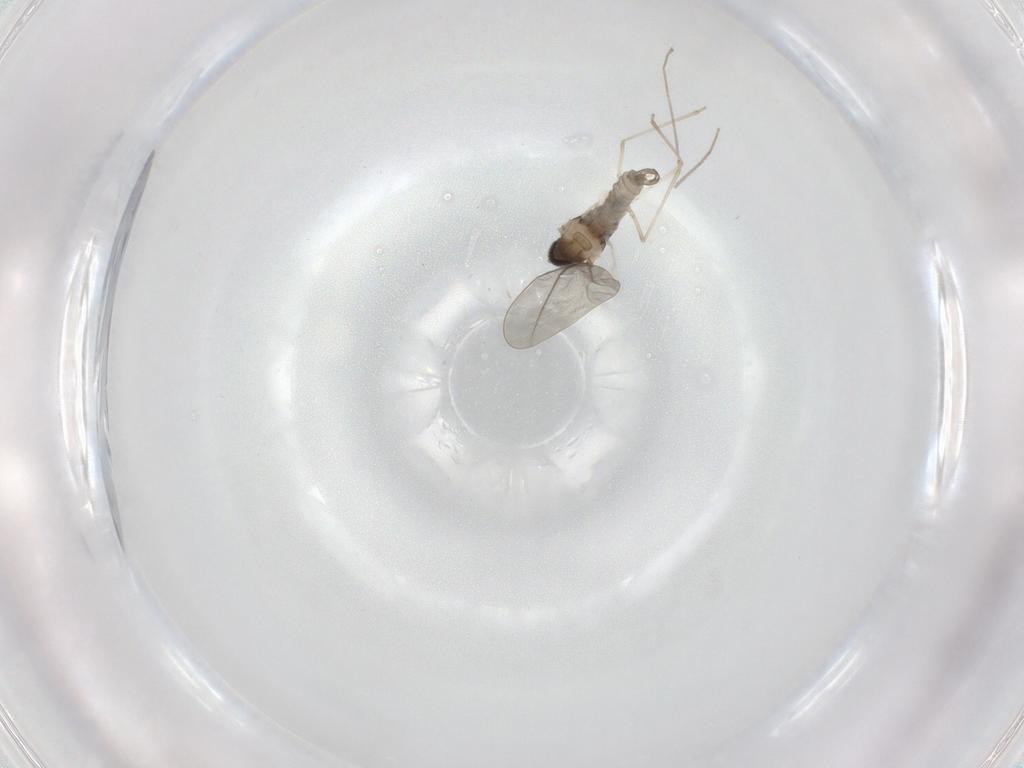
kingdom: Animalia
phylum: Arthropoda
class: Insecta
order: Diptera
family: Cecidomyiidae
